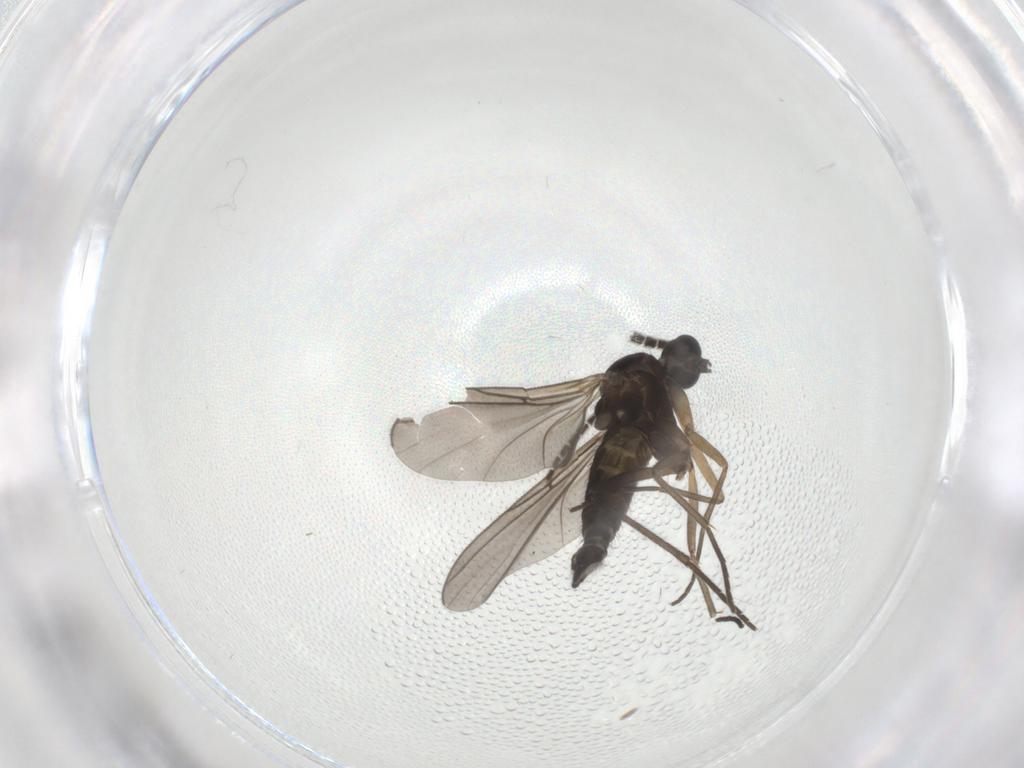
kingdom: Animalia
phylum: Arthropoda
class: Insecta
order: Diptera
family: Sciaridae
